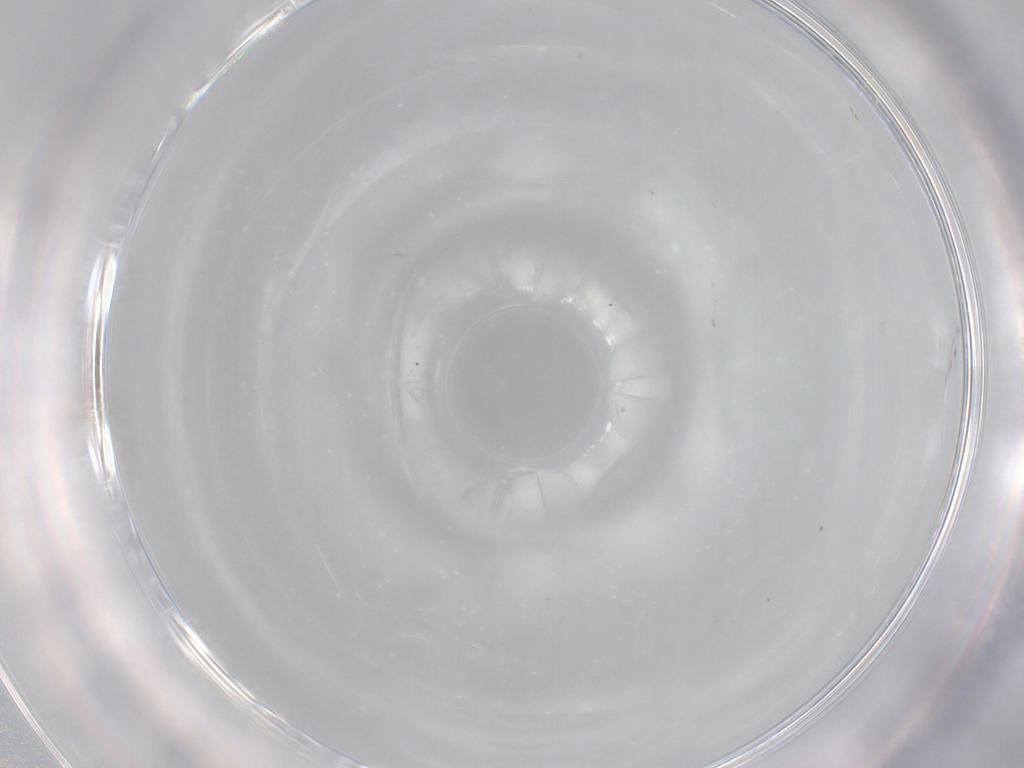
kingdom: Animalia
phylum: Arthropoda
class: Insecta
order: Diptera
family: Cecidomyiidae
